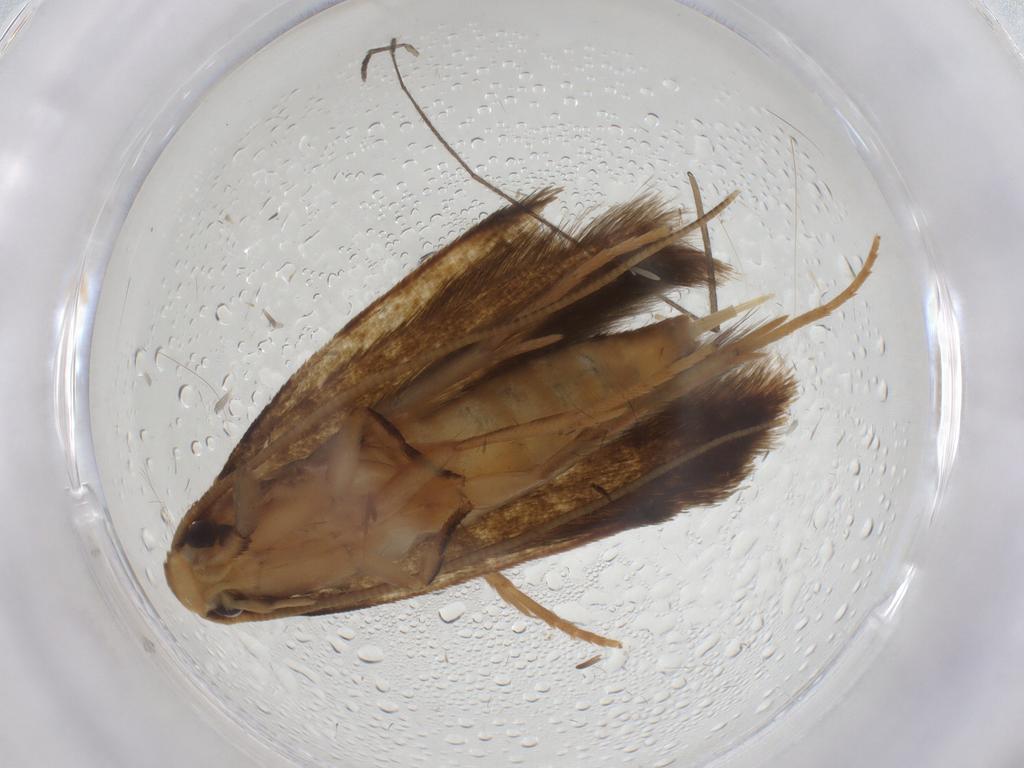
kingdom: Animalia
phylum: Arthropoda
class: Insecta
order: Lepidoptera
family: Tineidae
